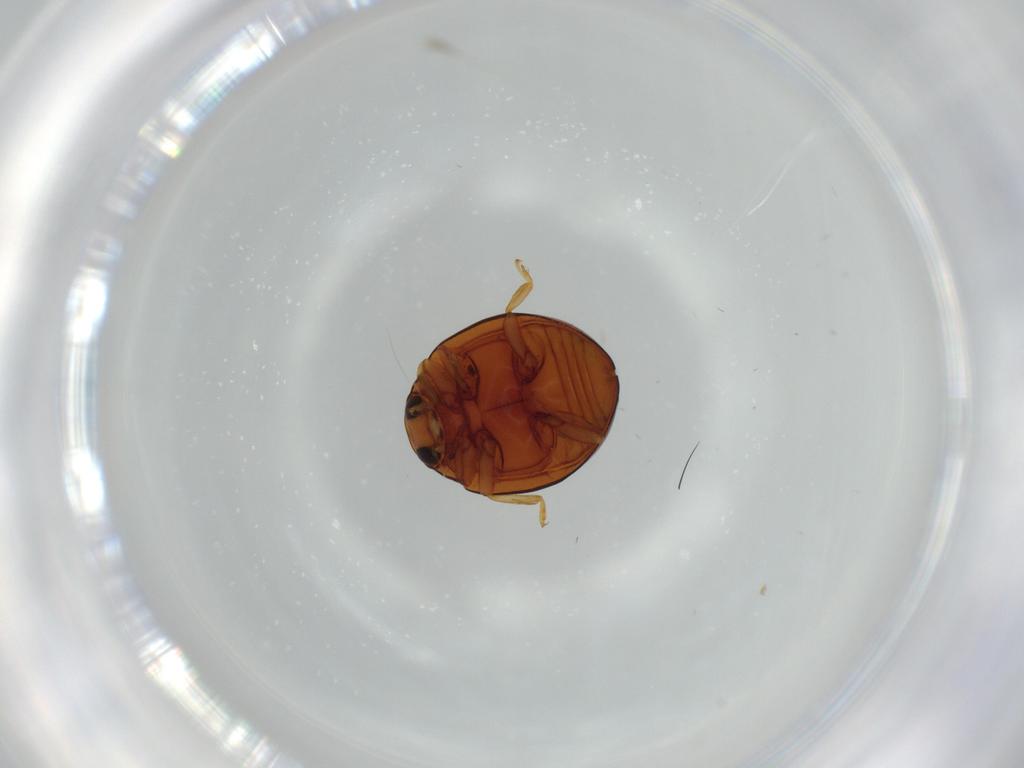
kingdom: Animalia
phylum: Arthropoda
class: Insecta
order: Coleoptera
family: Coccinellidae
